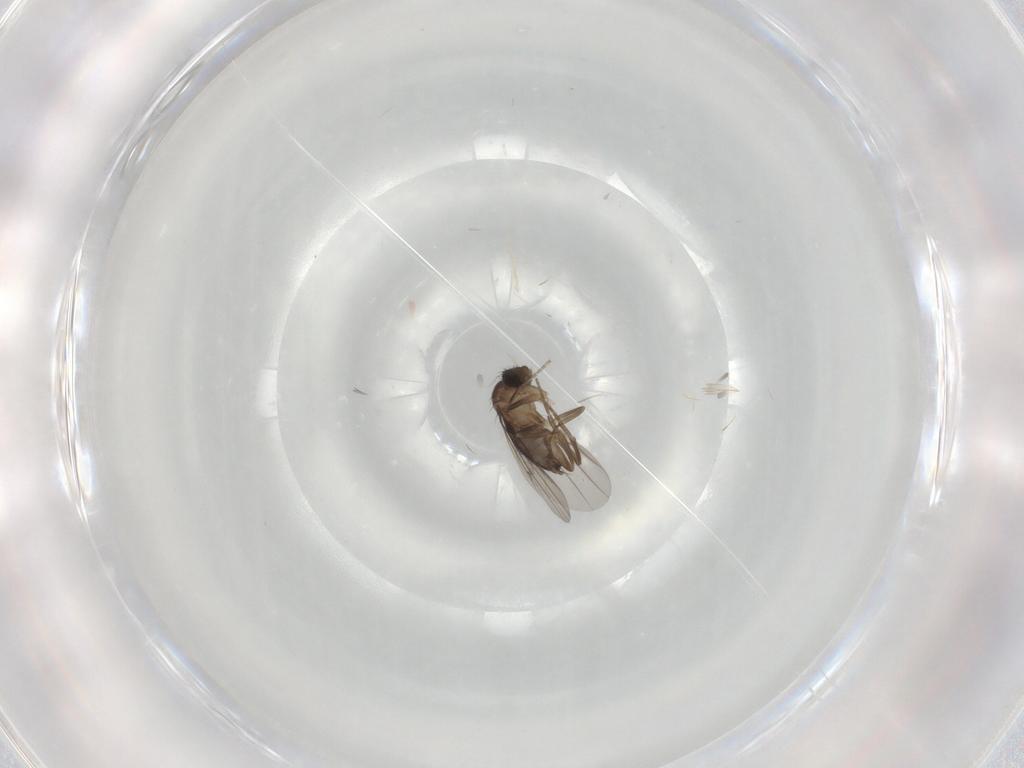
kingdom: Animalia
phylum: Arthropoda
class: Insecta
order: Diptera
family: Cecidomyiidae
